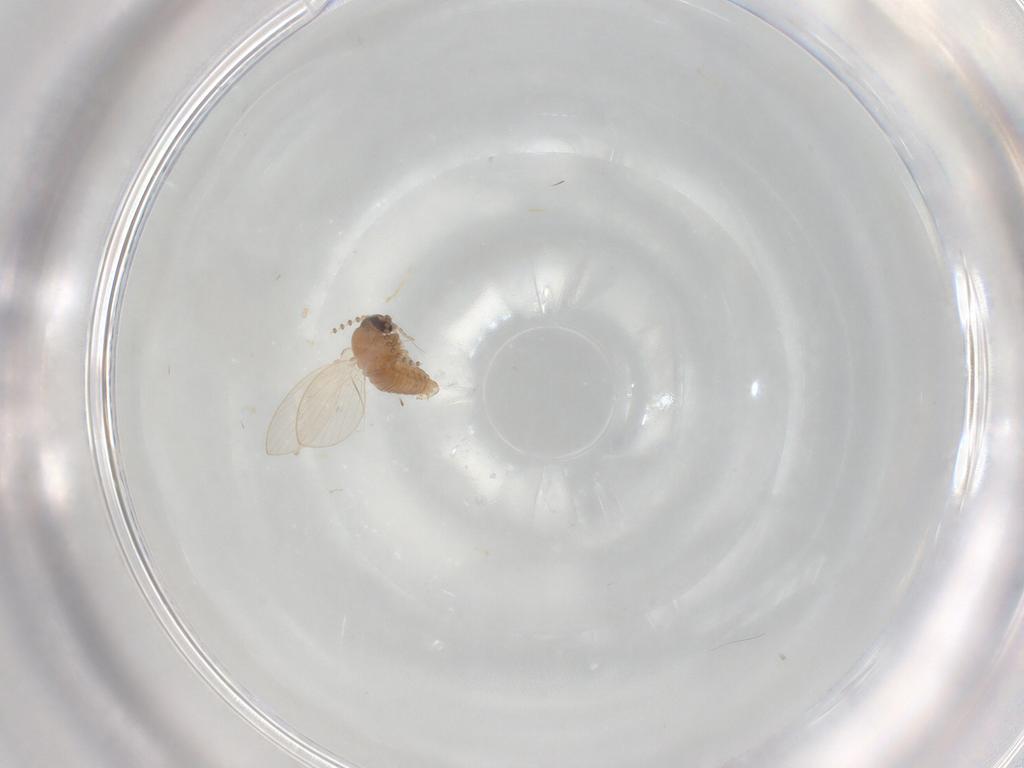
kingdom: Animalia
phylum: Arthropoda
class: Insecta
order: Diptera
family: Psychodidae
